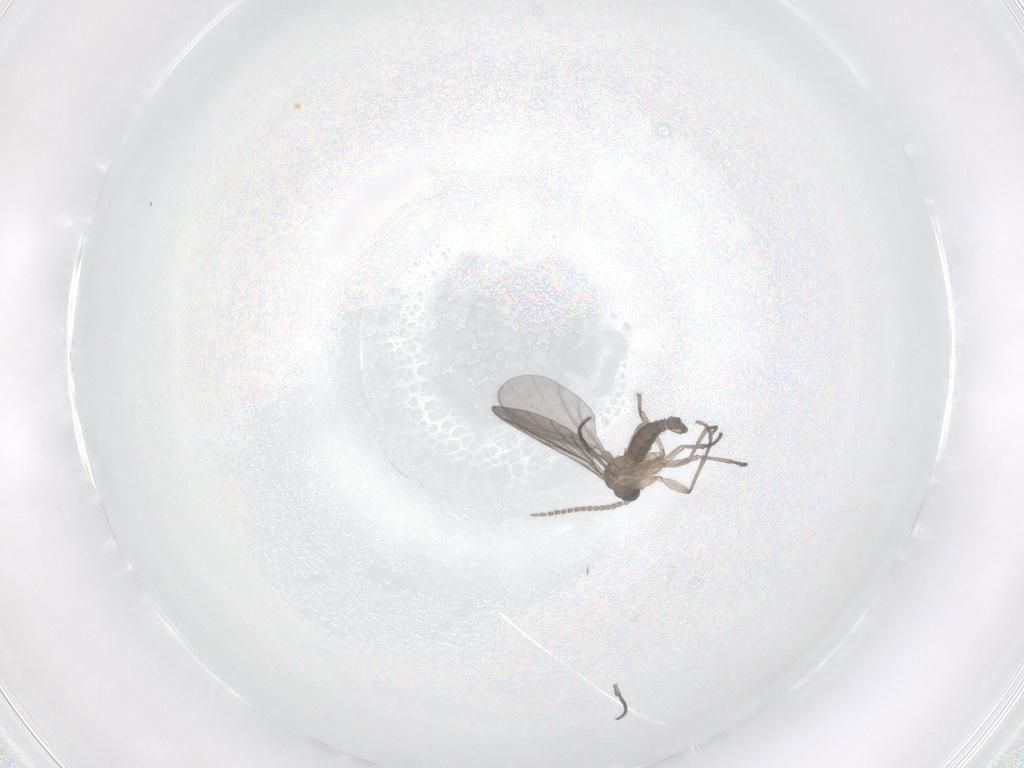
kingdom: Animalia
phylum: Arthropoda
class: Insecta
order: Diptera
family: Sciaridae
